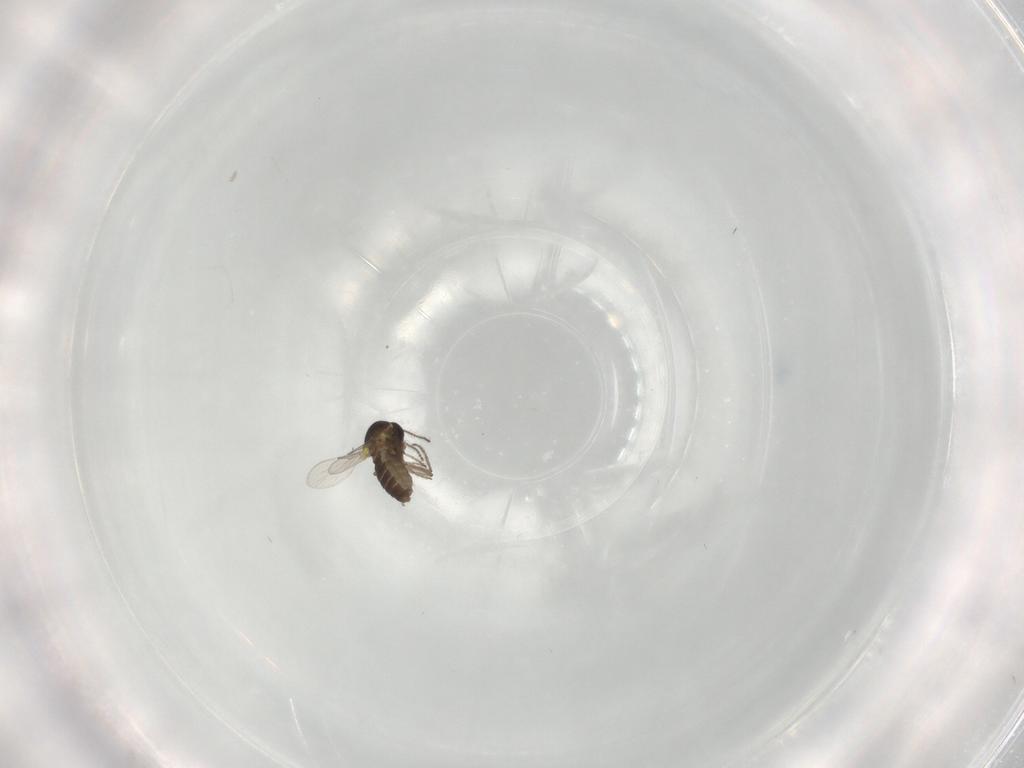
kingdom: Animalia
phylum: Arthropoda
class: Insecta
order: Diptera
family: Ceratopogonidae
